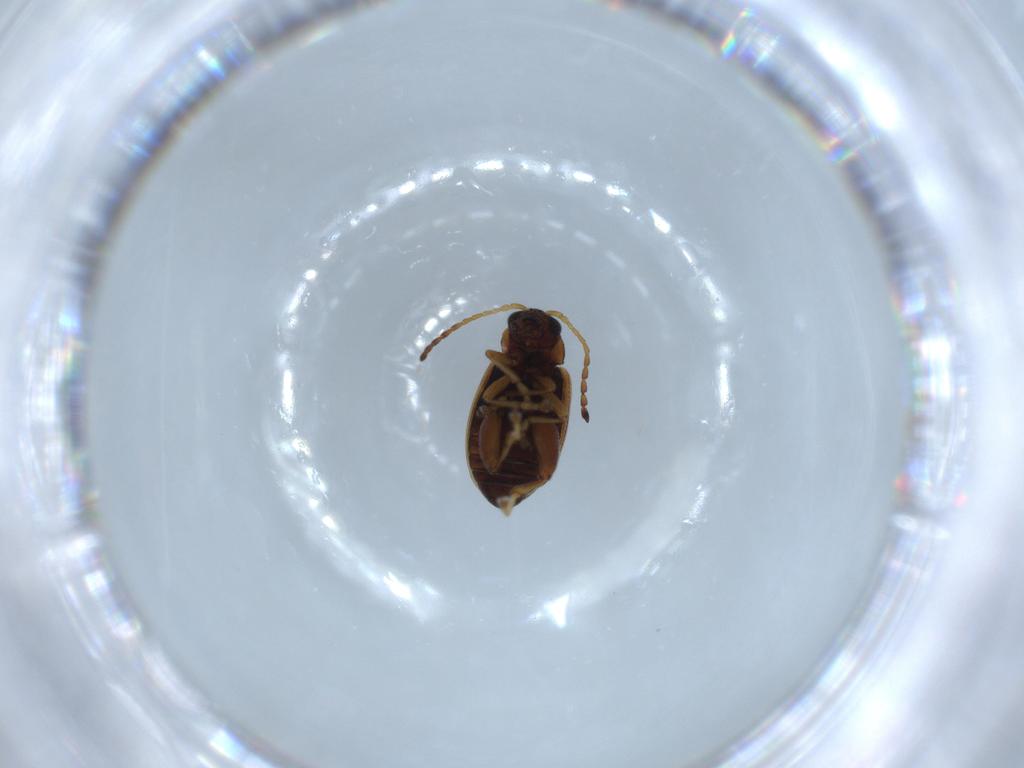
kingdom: Animalia
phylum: Arthropoda
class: Insecta
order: Coleoptera
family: Chrysomelidae
